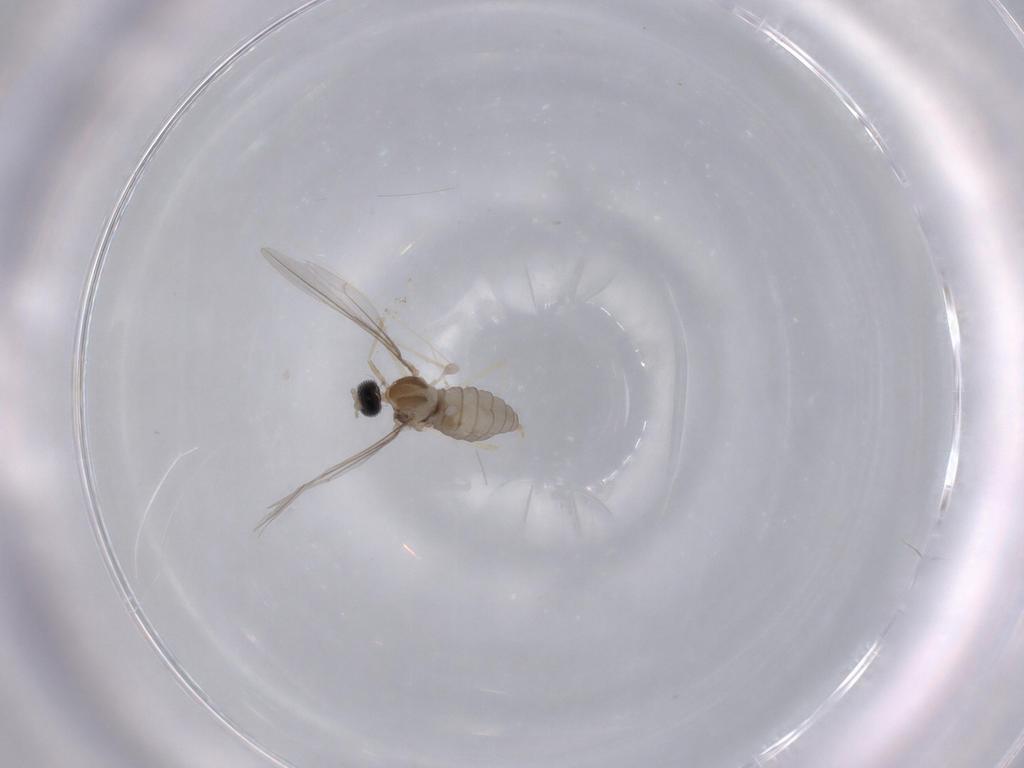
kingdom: Animalia
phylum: Arthropoda
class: Insecta
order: Diptera
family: Cecidomyiidae
